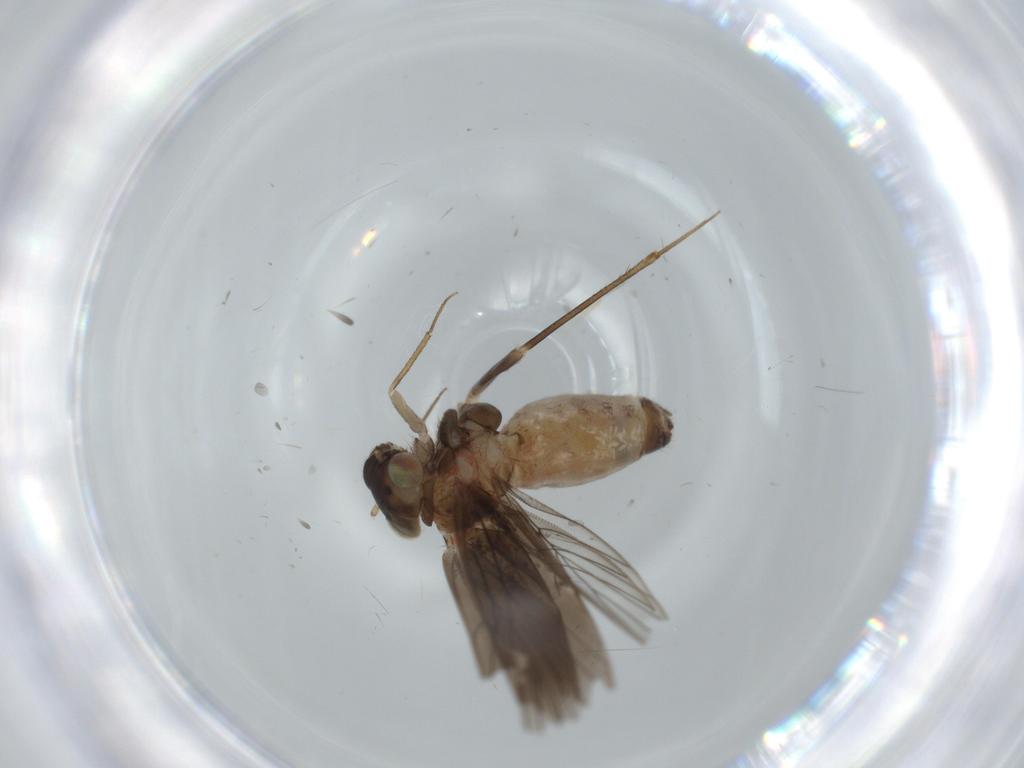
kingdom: Animalia
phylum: Arthropoda
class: Insecta
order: Psocodea
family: Lepidopsocidae
